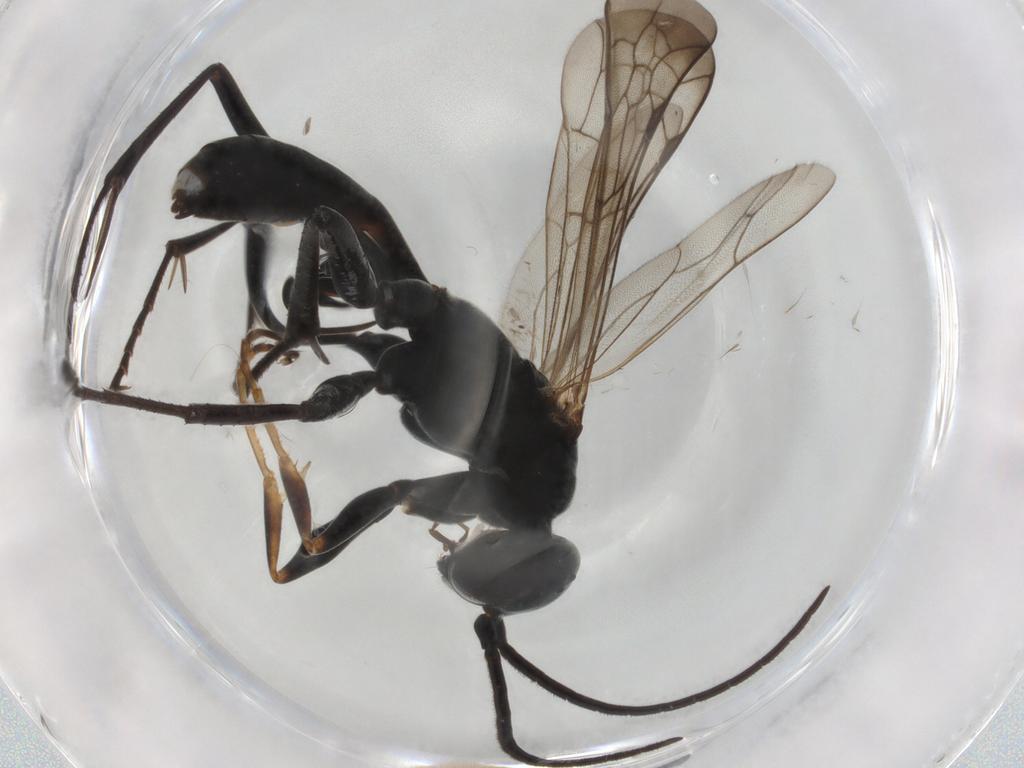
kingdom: Animalia
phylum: Arthropoda
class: Insecta
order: Hymenoptera
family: Pompilidae
